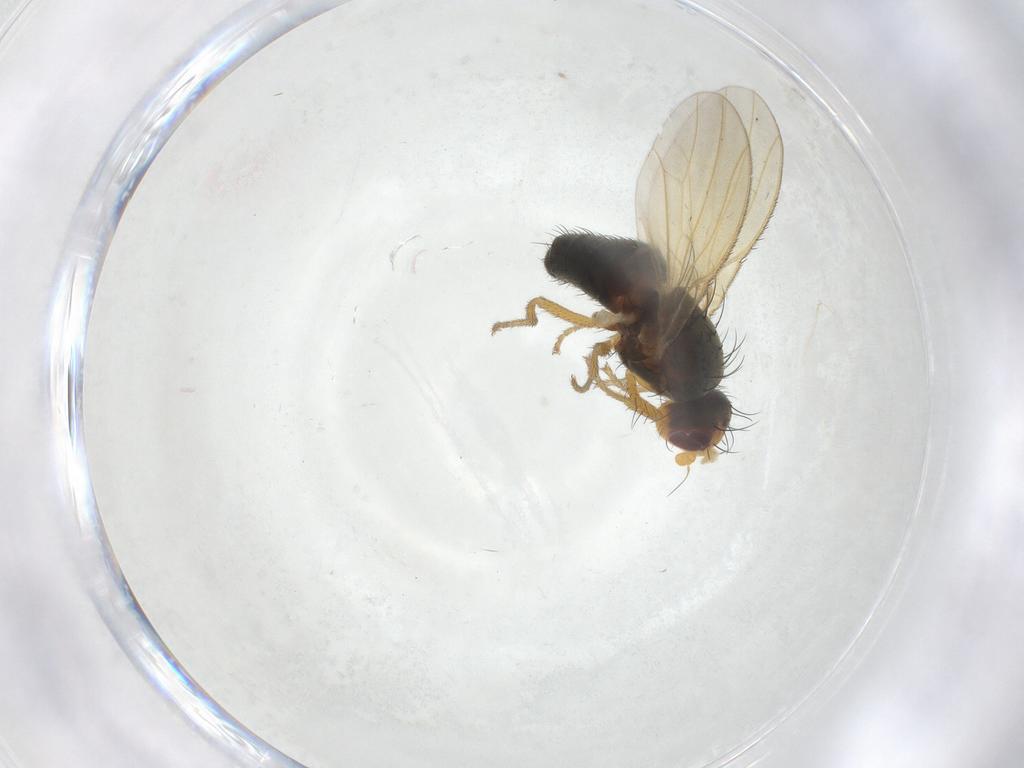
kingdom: Animalia
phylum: Arthropoda
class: Insecta
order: Diptera
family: Heleomyzidae
